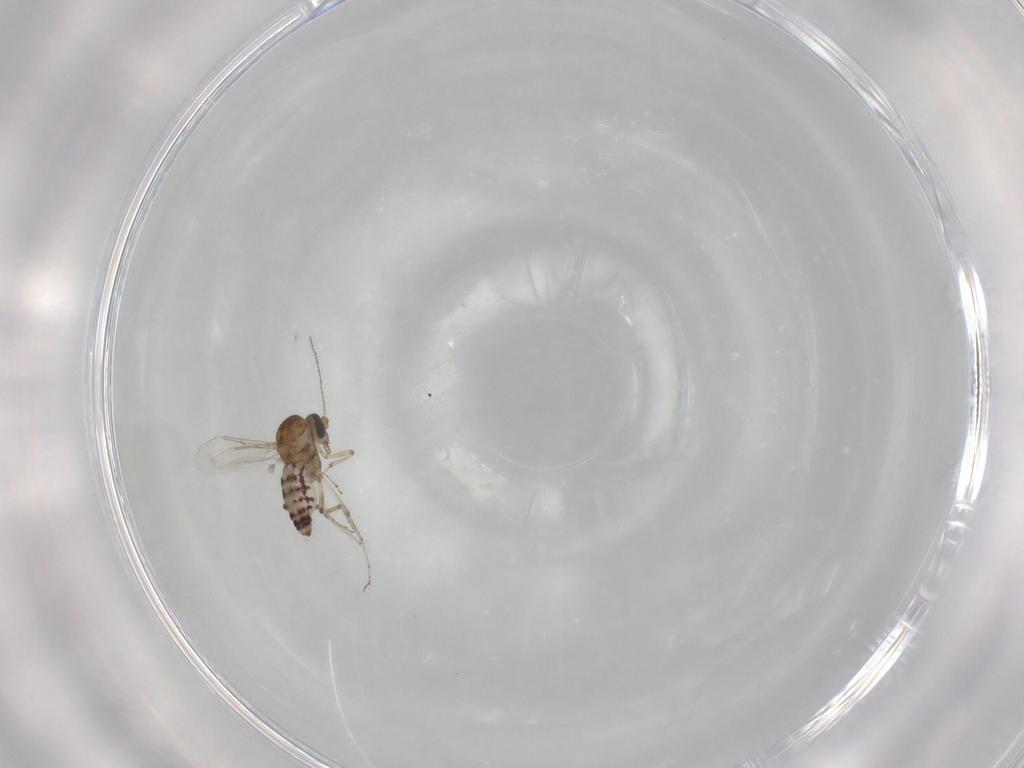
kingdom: Animalia
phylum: Arthropoda
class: Insecta
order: Diptera
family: Ceratopogonidae
